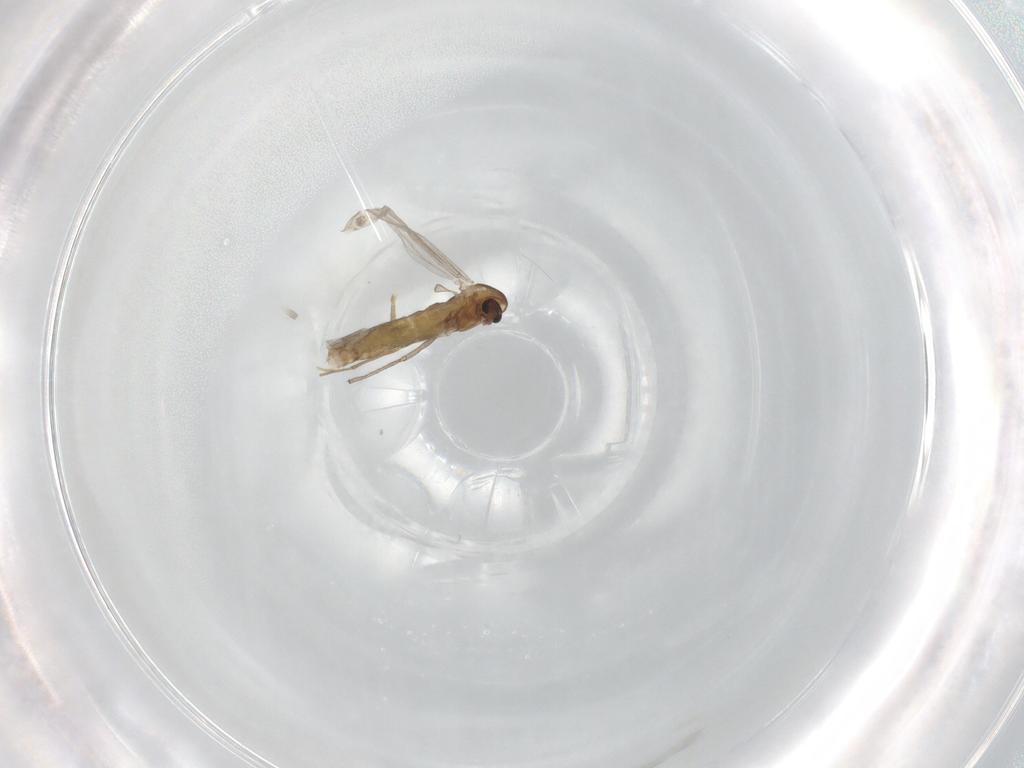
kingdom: Animalia
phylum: Arthropoda
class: Insecta
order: Diptera
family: Chironomidae
